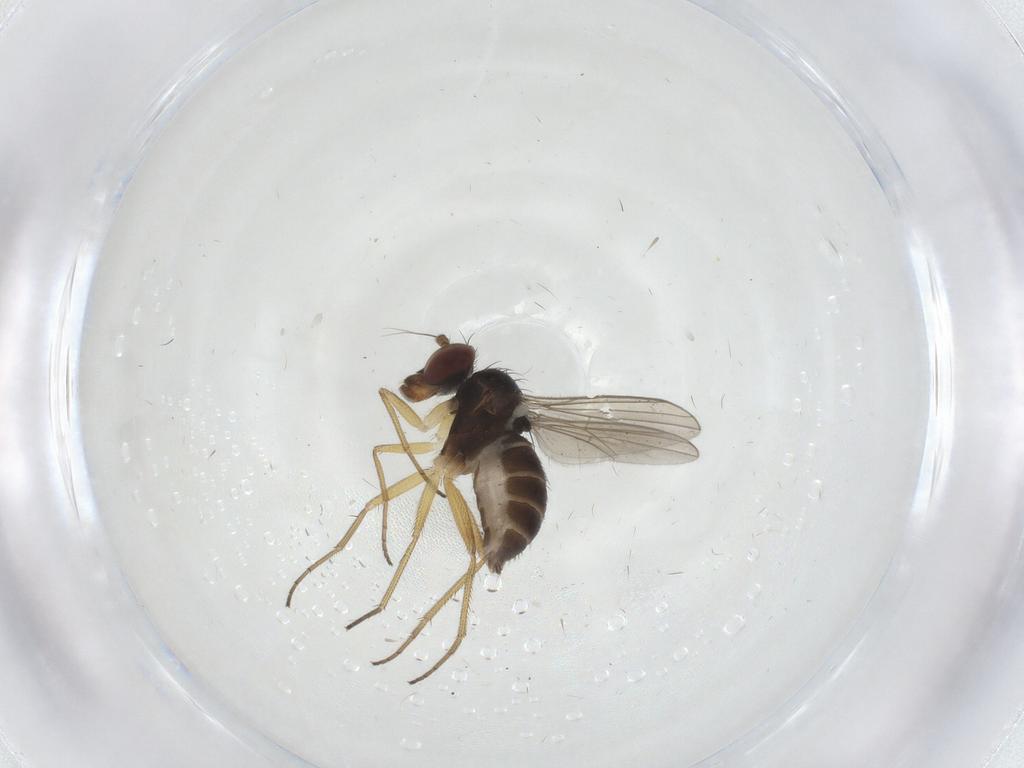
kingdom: Animalia
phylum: Arthropoda
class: Insecta
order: Diptera
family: Dolichopodidae
